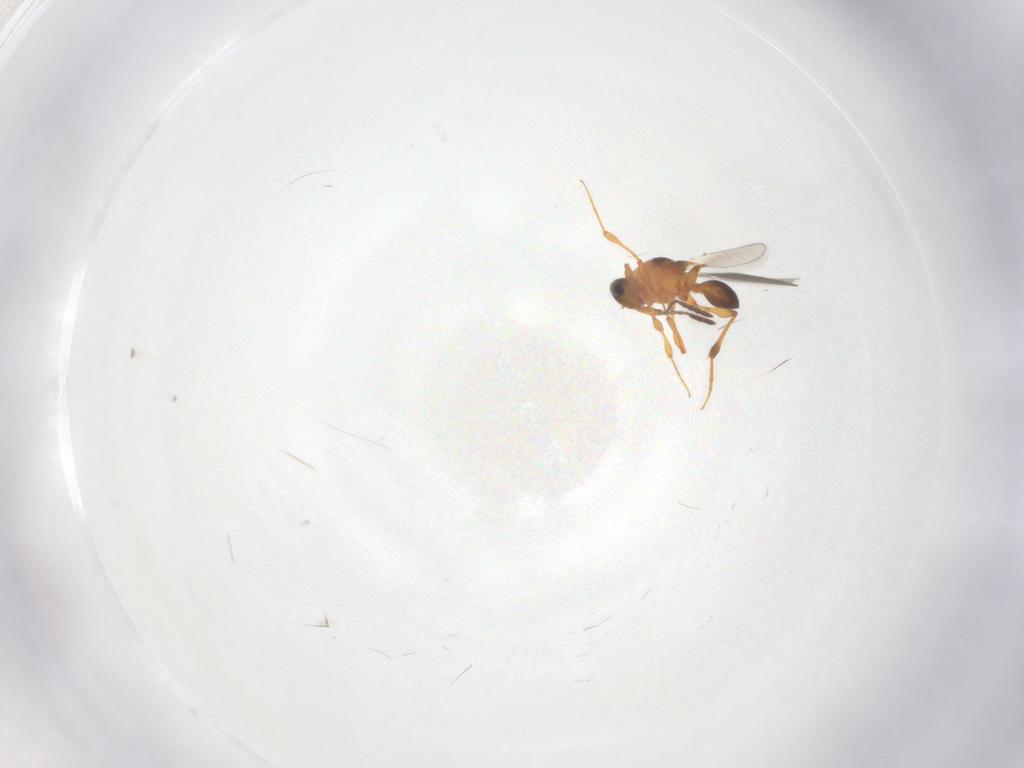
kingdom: Animalia
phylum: Arthropoda
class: Insecta
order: Hymenoptera
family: Platygastridae
